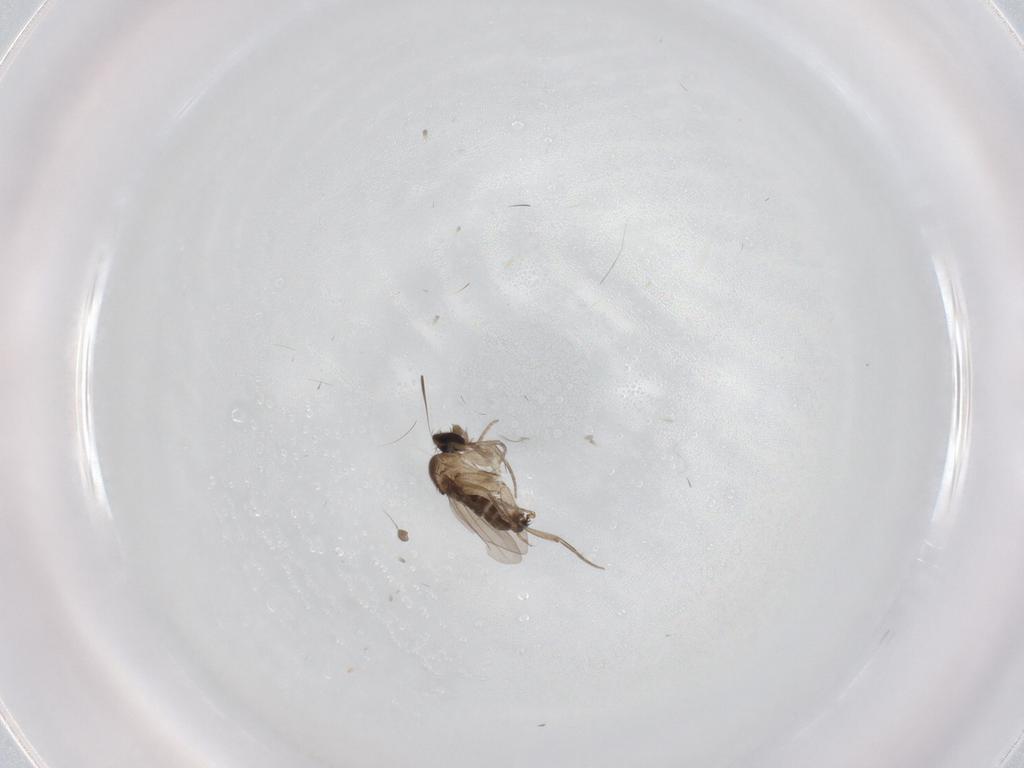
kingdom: Animalia
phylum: Arthropoda
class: Insecta
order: Diptera
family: Phoridae
